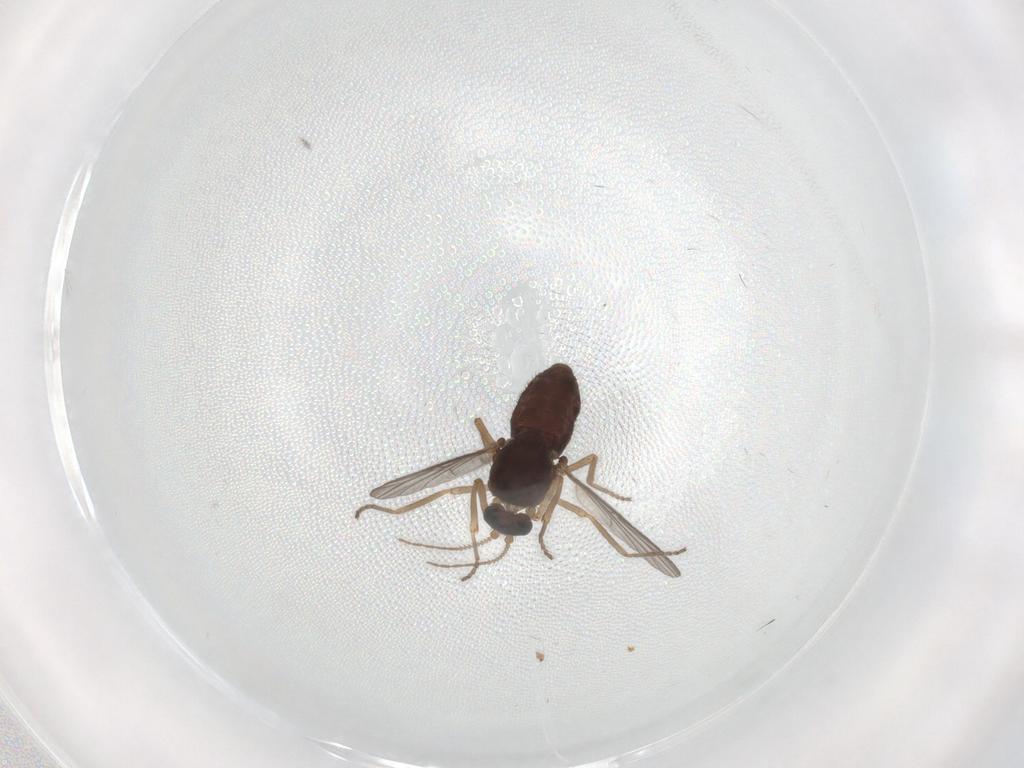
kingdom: Animalia
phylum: Arthropoda
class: Insecta
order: Diptera
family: Ceratopogonidae
